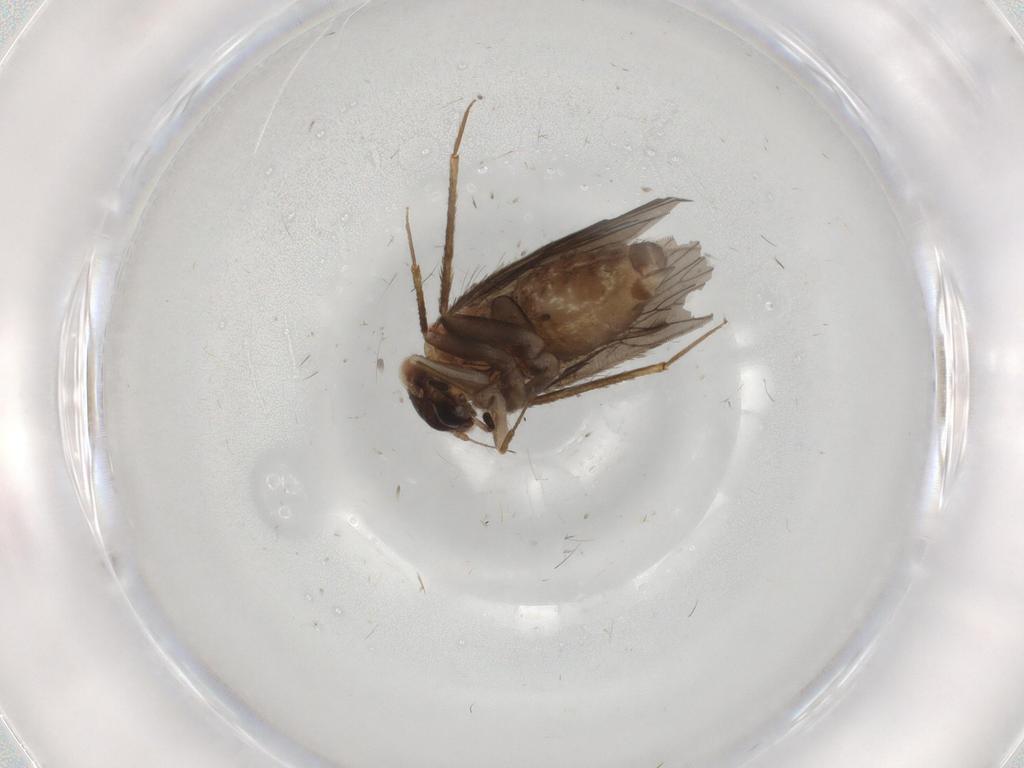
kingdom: Animalia
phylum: Arthropoda
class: Insecta
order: Psocodea
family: Lepidopsocidae
